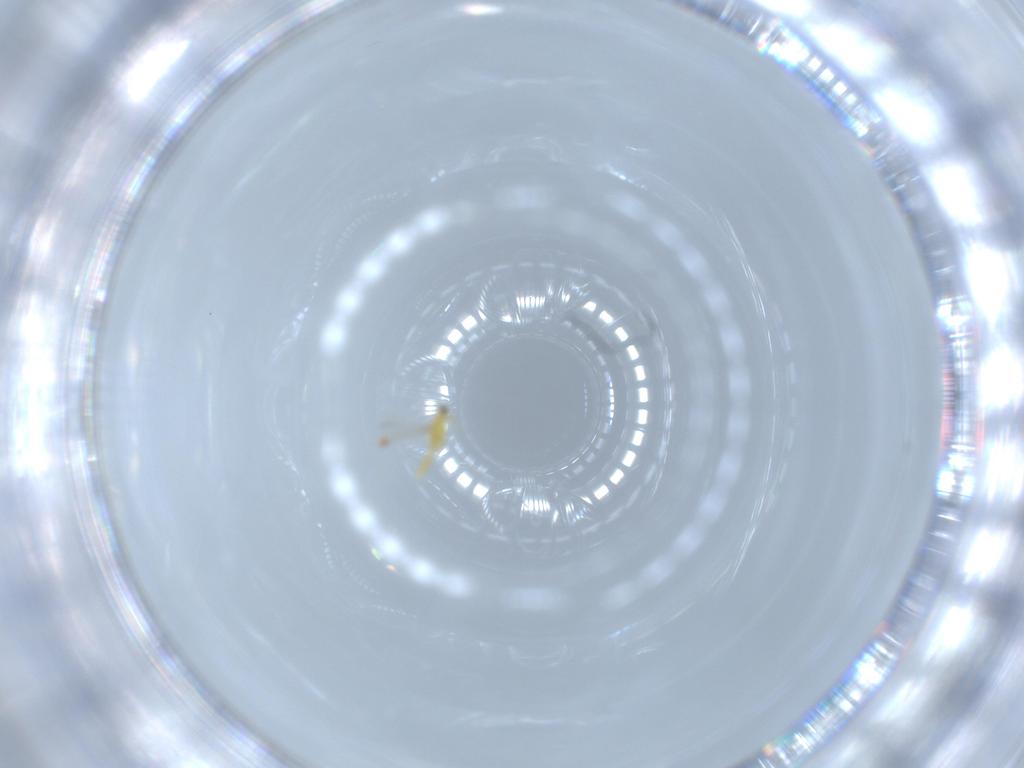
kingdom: Animalia
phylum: Arthropoda
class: Insecta
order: Thysanoptera
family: Thripidae
